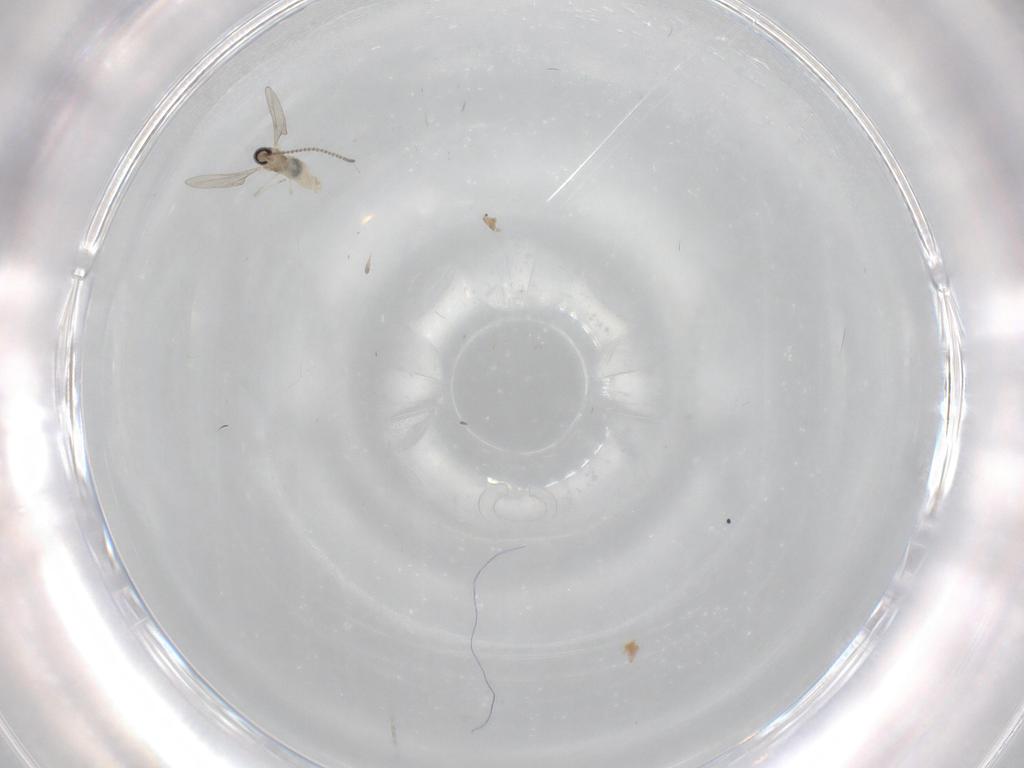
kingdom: Animalia
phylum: Arthropoda
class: Insecta
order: Diptera
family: Cecidomyiidae
